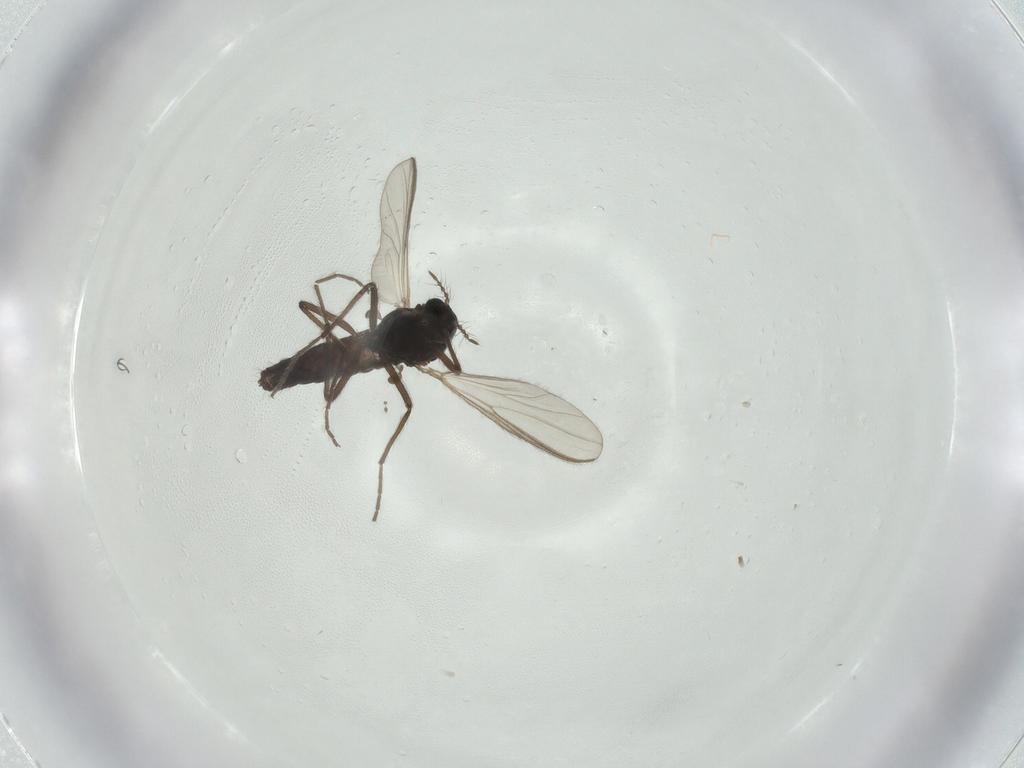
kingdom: Animalia
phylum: Arthropoda
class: Insecta
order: Diptera
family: Chironomidae
